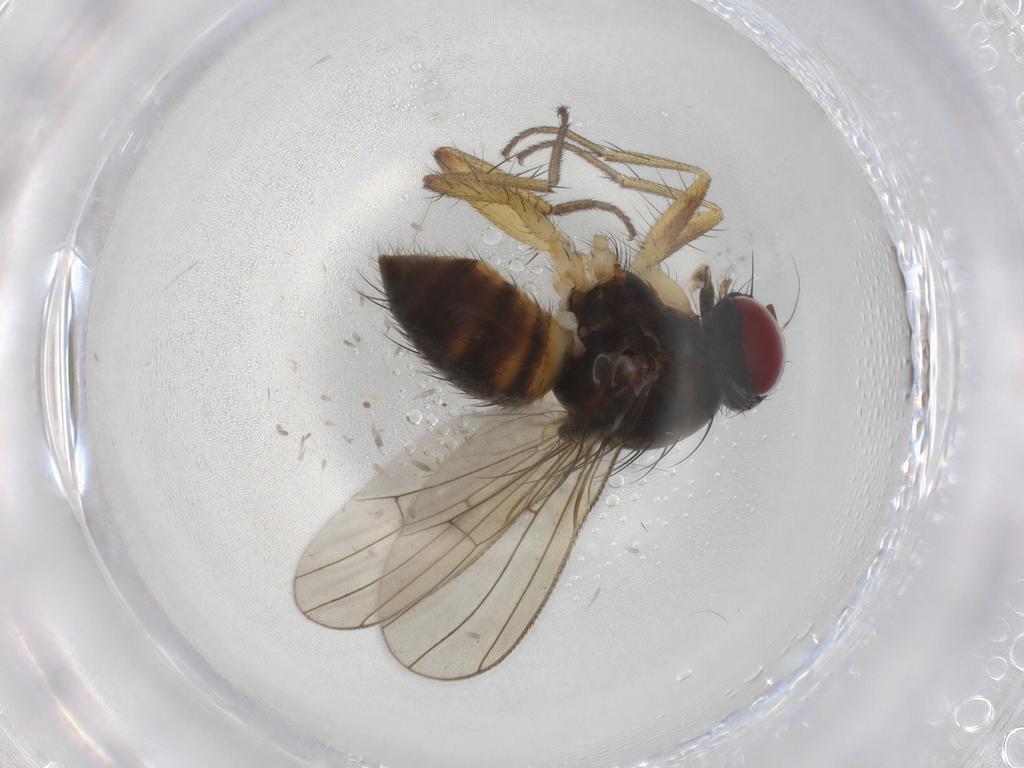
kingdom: Animalia
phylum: Arthropoda
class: Insecta
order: Diptera
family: Muscidae
